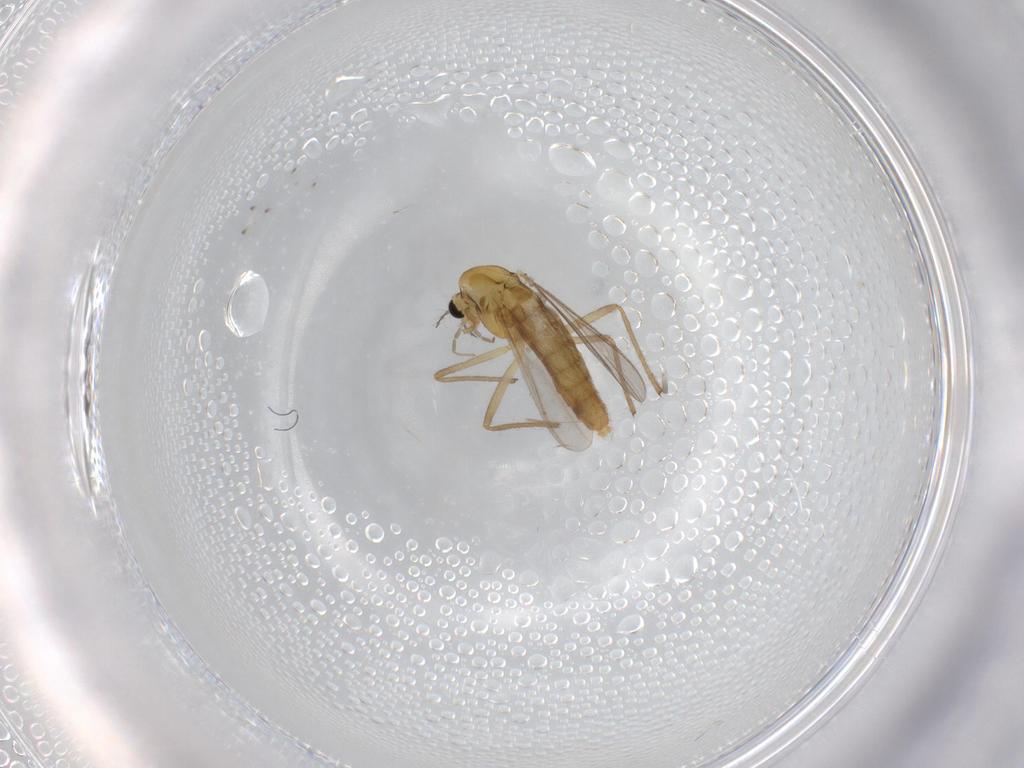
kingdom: Animalia
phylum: Arthropoda
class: Insecta
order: Diptera
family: Chironomidae
